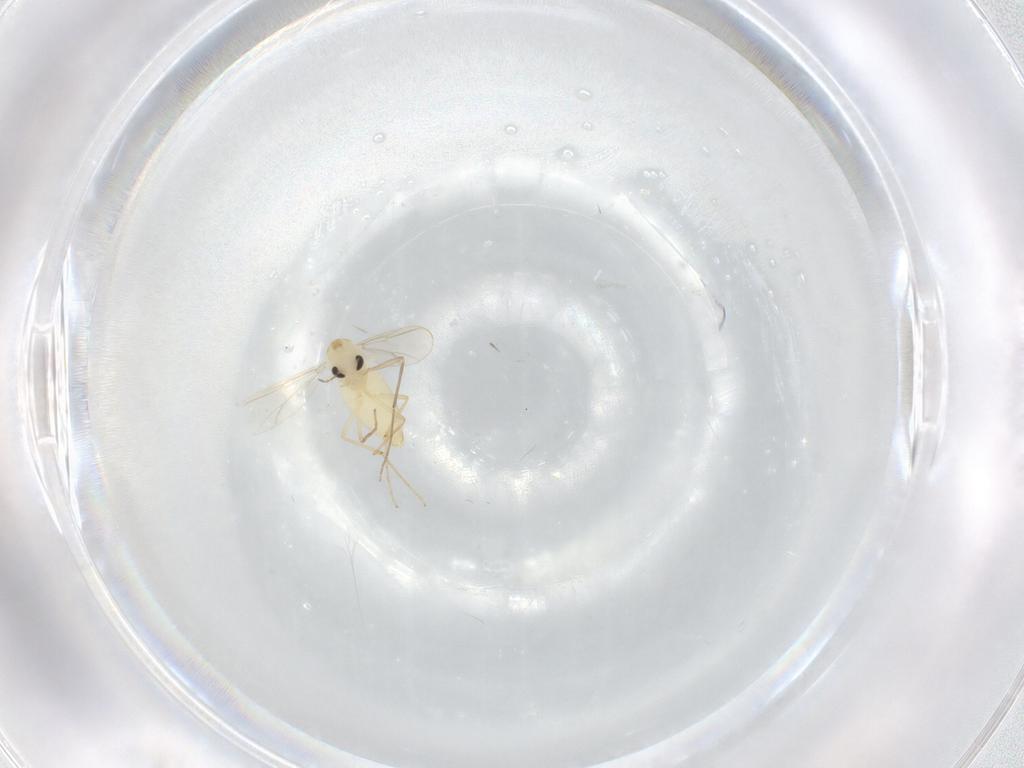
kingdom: Animalia
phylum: Arthropoda
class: Insecta
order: Diptera
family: Chironomidae
